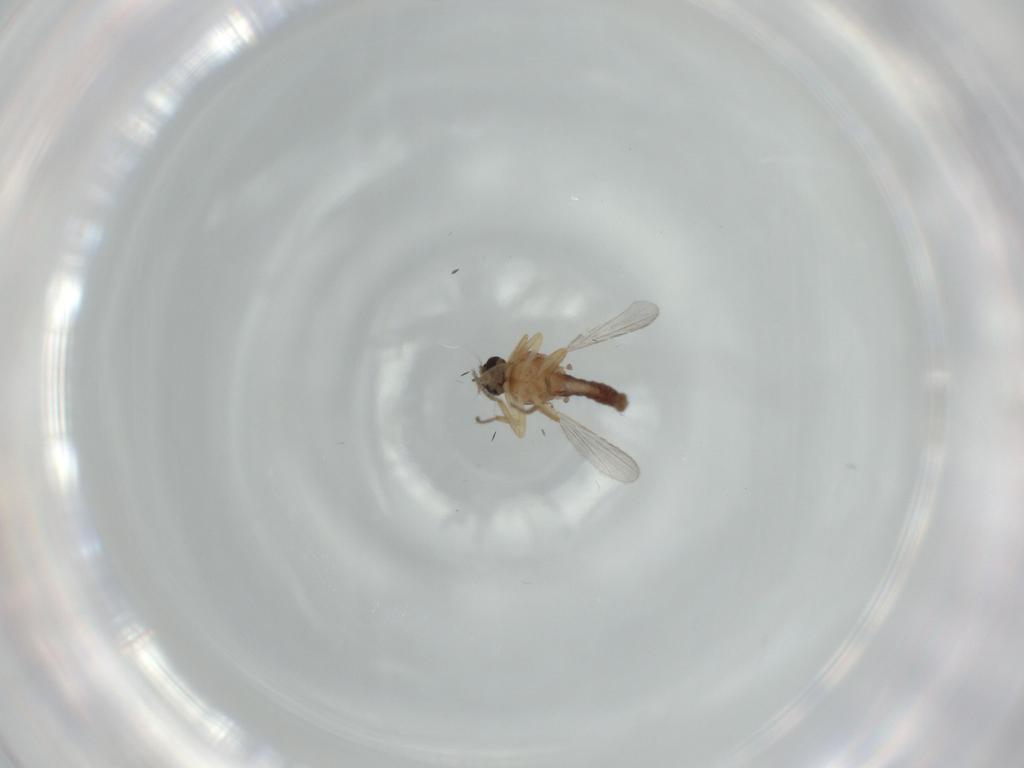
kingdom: Animalia
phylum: Arthropoda
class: Insecta
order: Diptera
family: Ceratopogonidae
